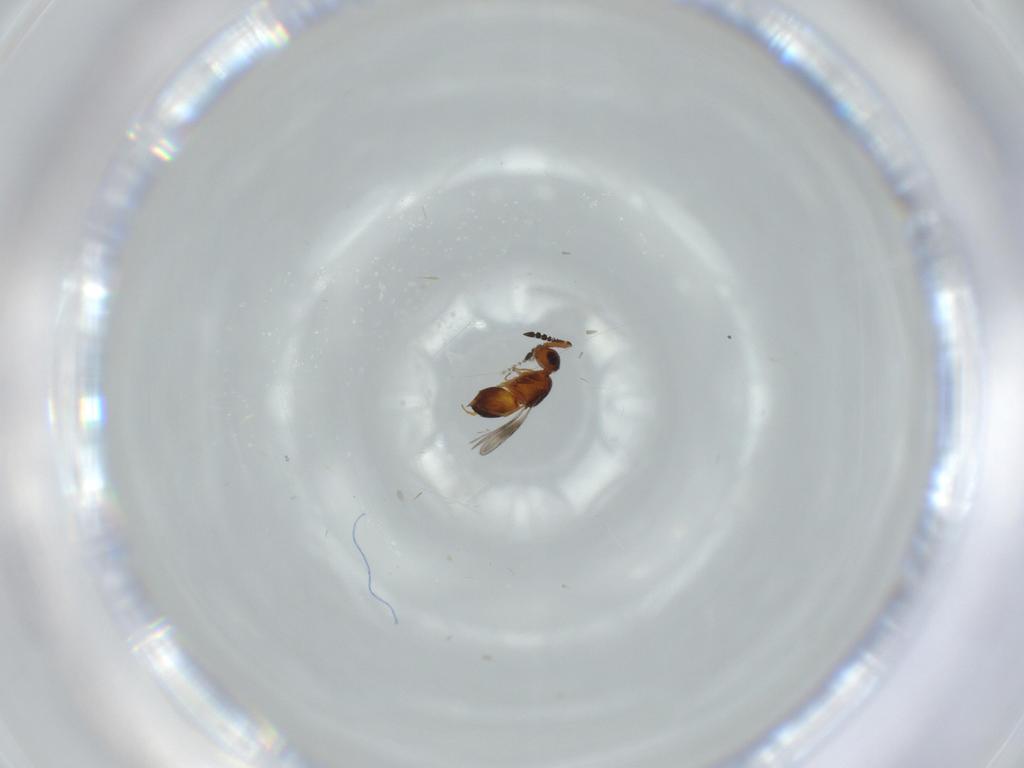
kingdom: Animalia
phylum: Arthropoda
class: Insecta
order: Hymenoptera
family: Ceraphronidae
